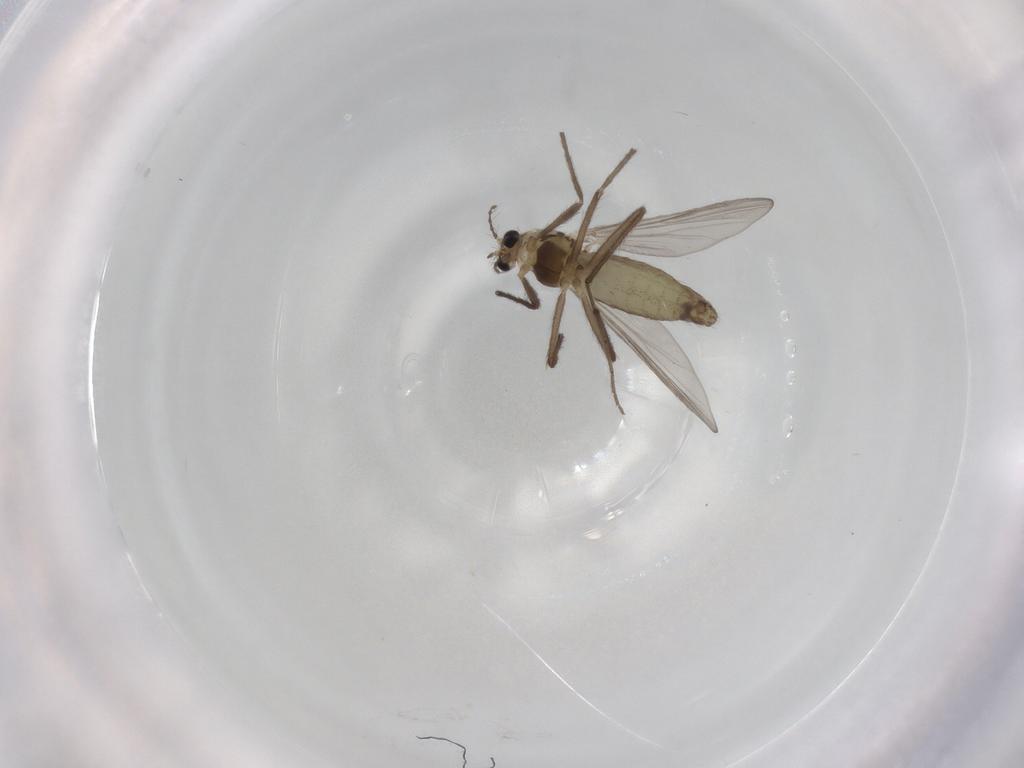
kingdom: Animalia
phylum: Arthropoda
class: Insecta
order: Diptera
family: Chironomidae
